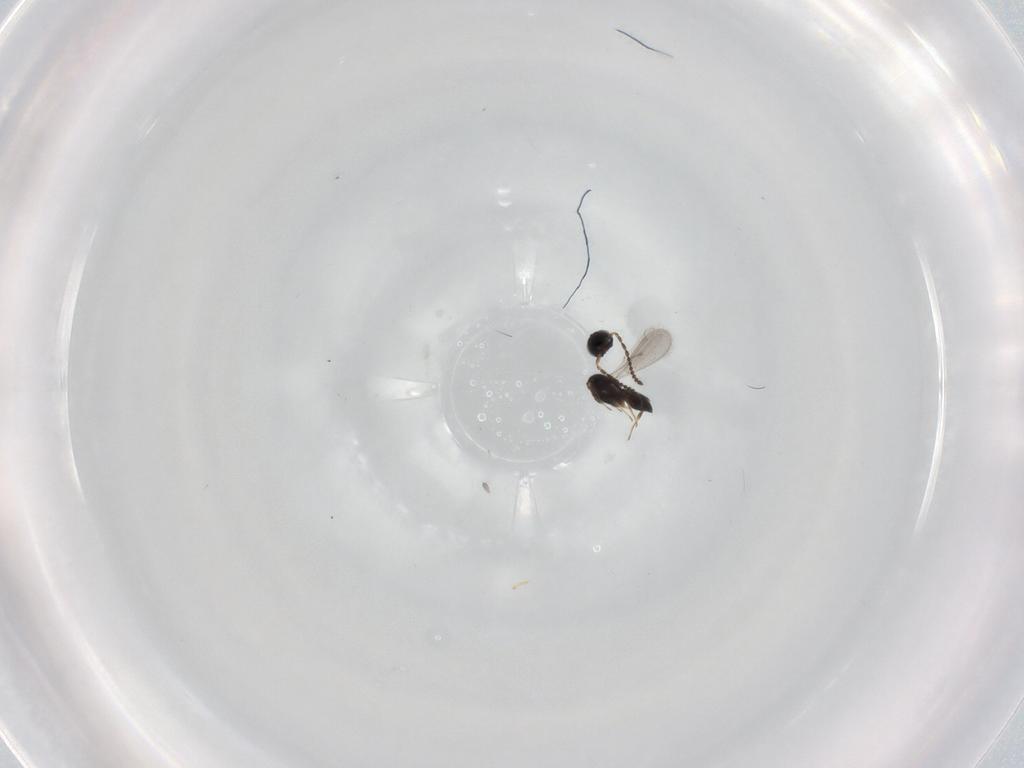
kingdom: Animalia
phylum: Arthropoda
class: Insecta
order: Hymenoptera
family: Scelionidae
